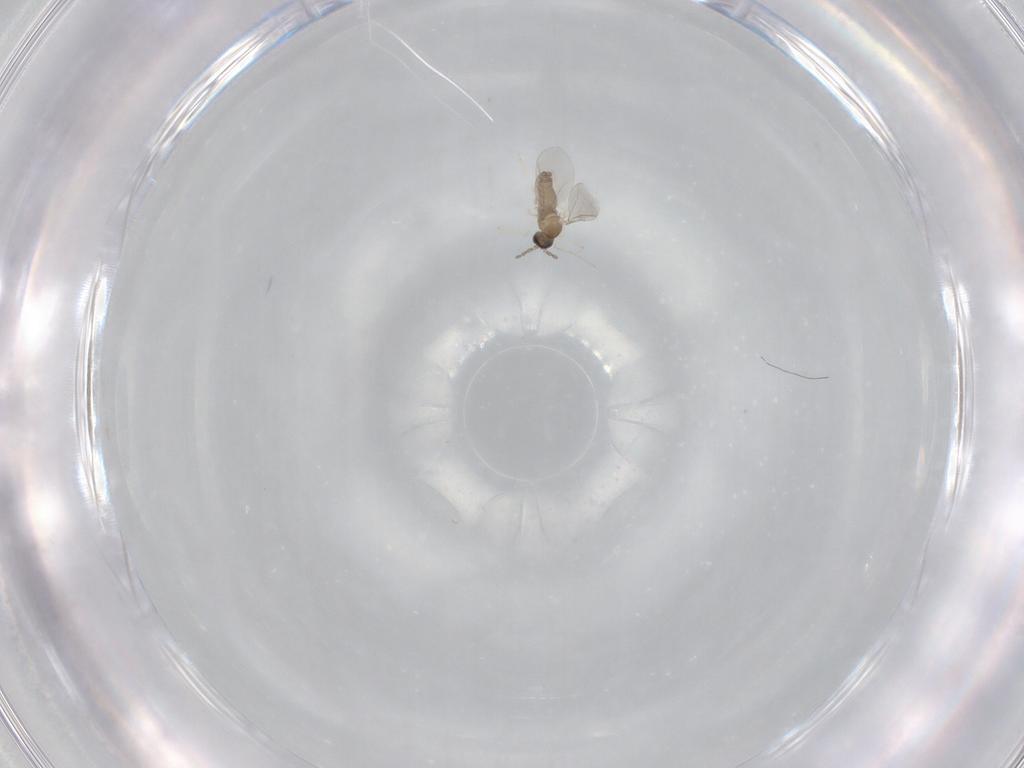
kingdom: Animalia
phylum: Arthropoda
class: Insecta
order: Diptera
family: Cecidomyiidae
